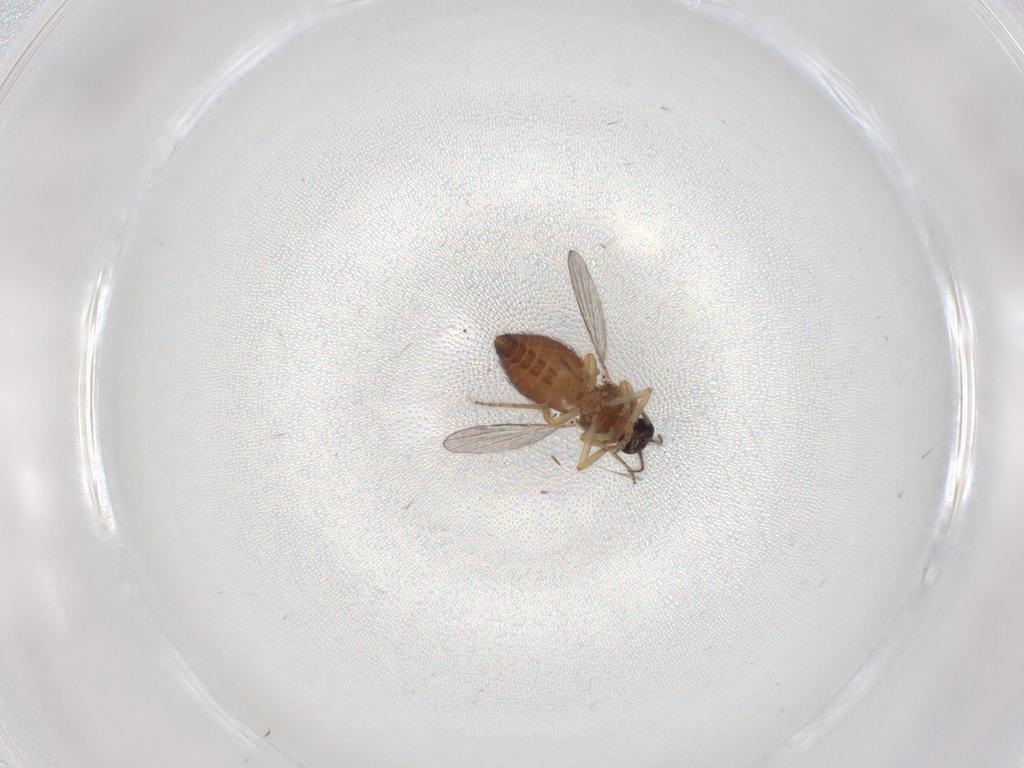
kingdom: Animalia
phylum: Arthropoda
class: Insecta
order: Diptera
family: Ceratopogonidae
